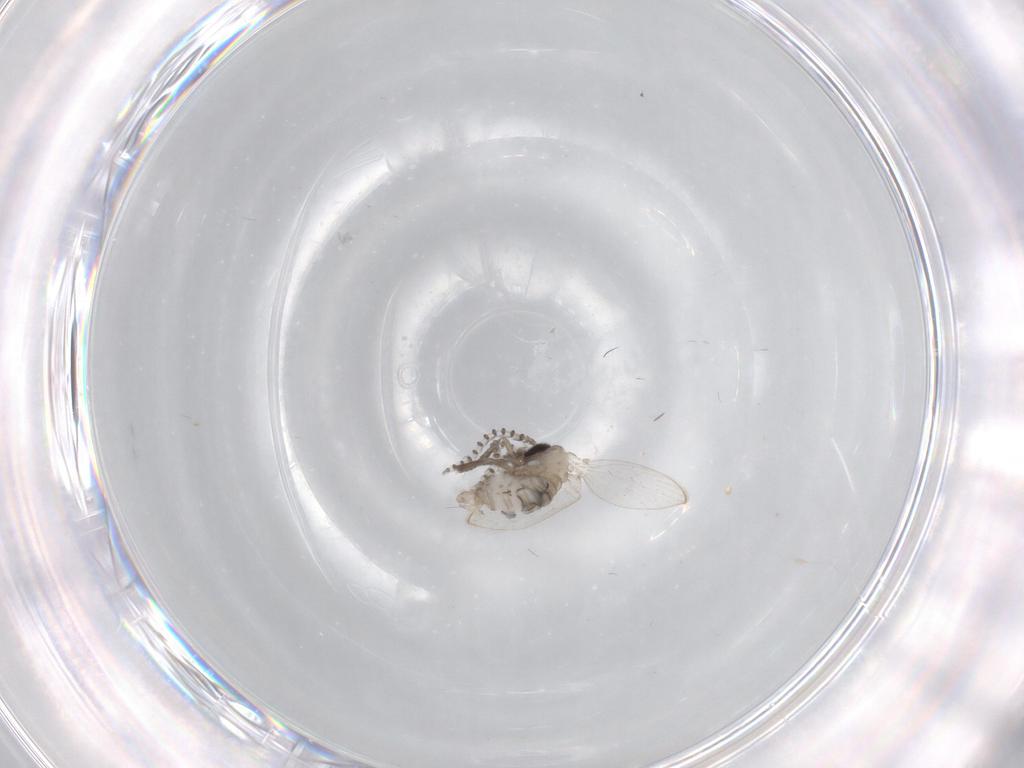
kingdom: Animalia
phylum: Arthropoda
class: Insecta
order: Diptera
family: Psychodidae
